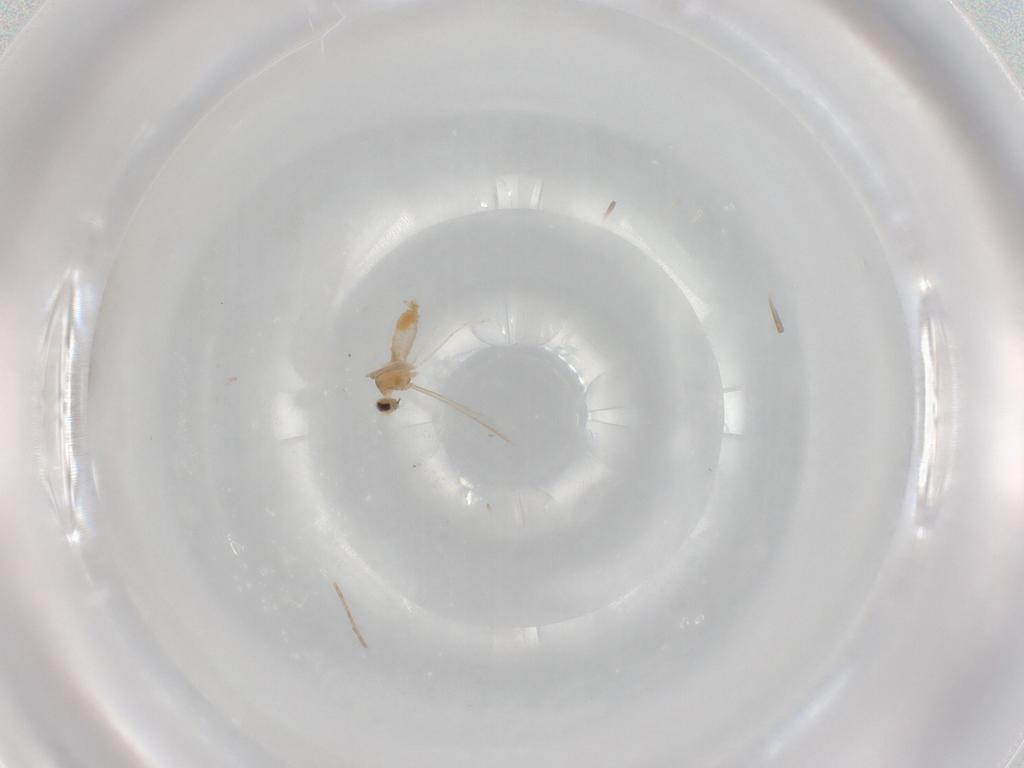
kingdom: Animalia
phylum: Arthropoda
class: Insecta
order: Diptera
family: Cecidomyiidae
